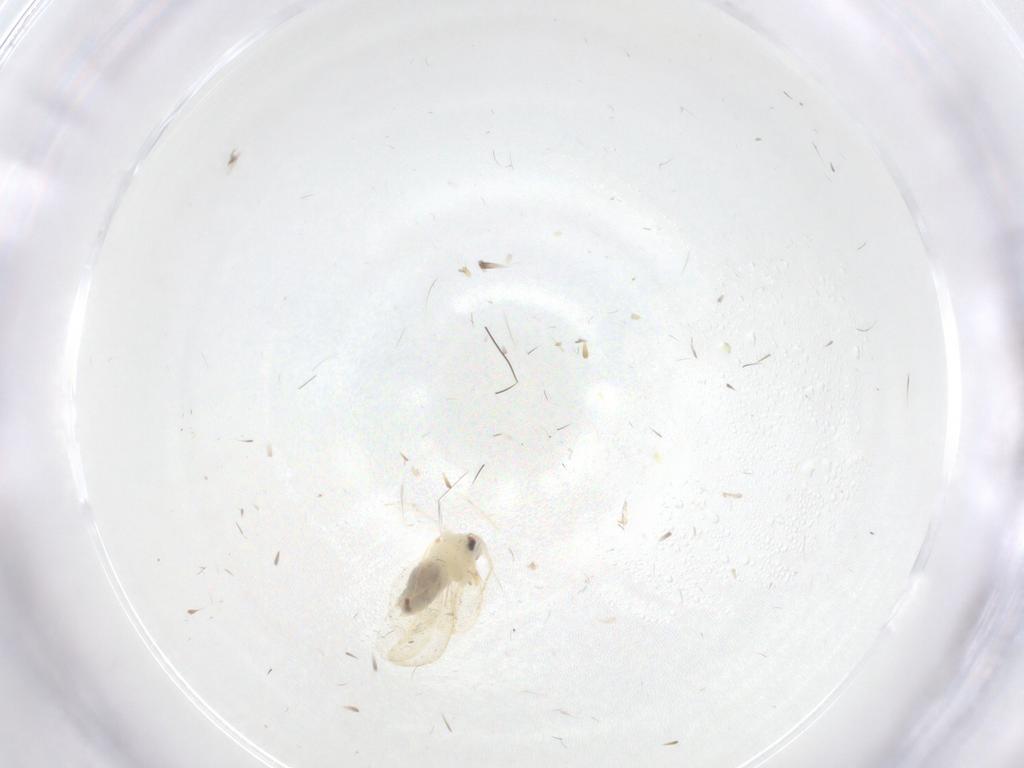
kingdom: Animalia
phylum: Arthropoda
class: Insecta
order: Hemiptera
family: Aleyrodidae
